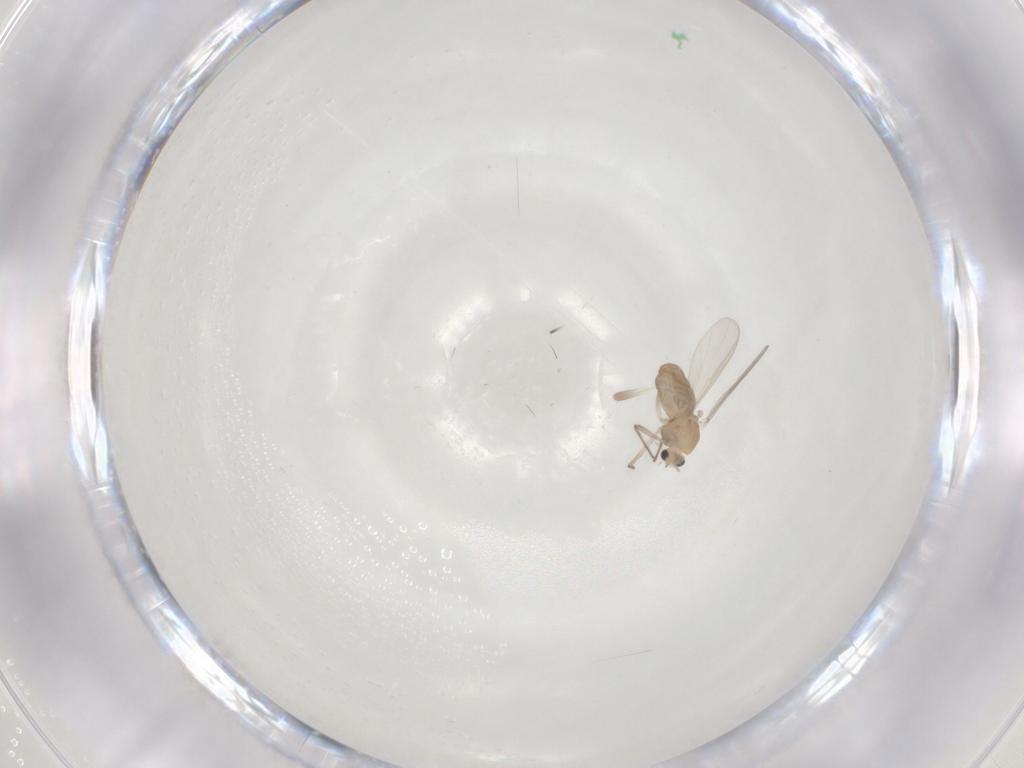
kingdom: Animalia
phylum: Arthropoda
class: Insecta
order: Diptera
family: Chironomidae
